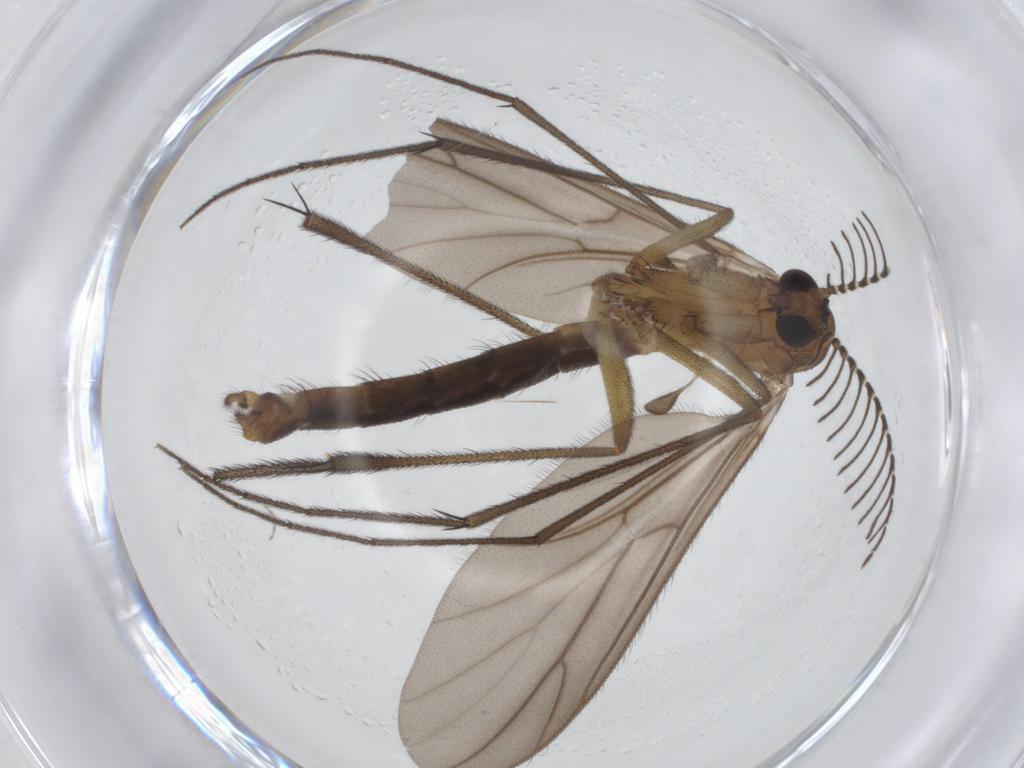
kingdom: Animalia
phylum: Arthropoda
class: Insecta
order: Diptera
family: Ditomyiidae
